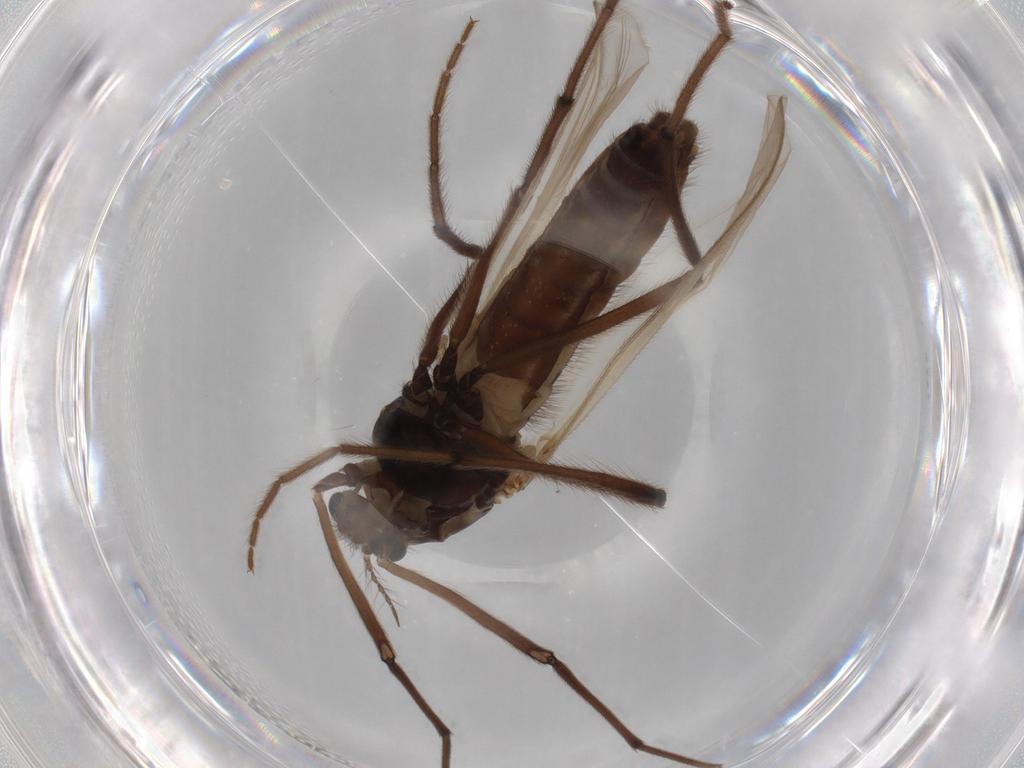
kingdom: Animalia
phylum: Arthropoda
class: Insecta
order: Diptera
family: Chironomidae
